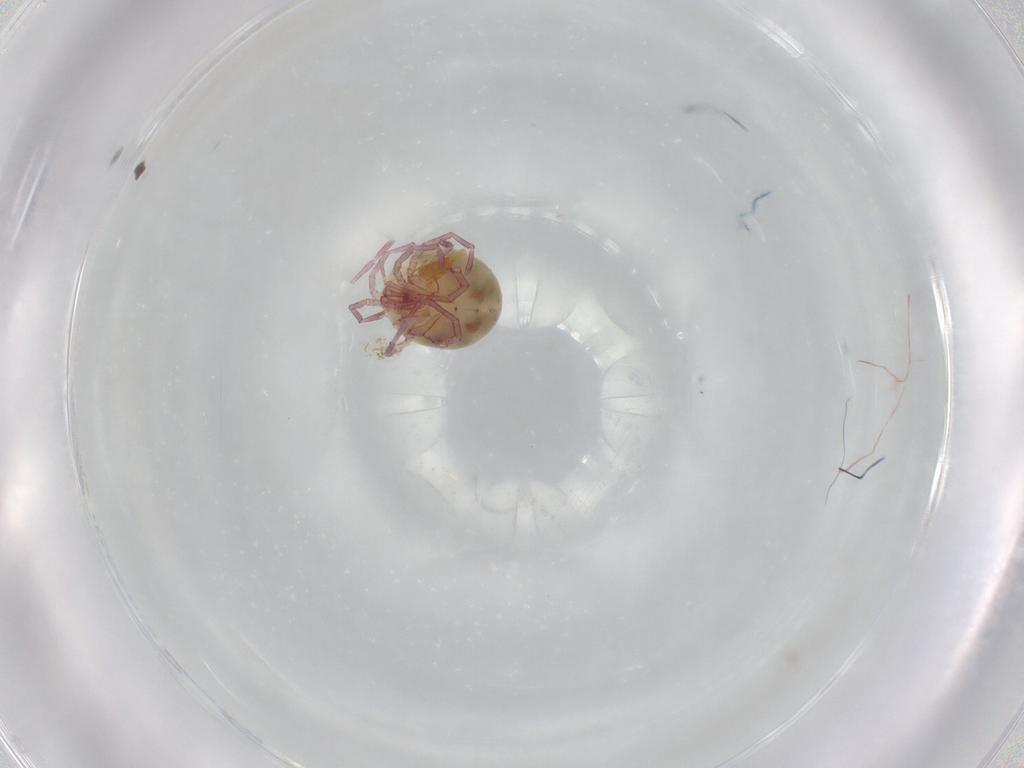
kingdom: Animalia
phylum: Arthropoda
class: Arachnida
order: Trombidiformes
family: Pionidae
